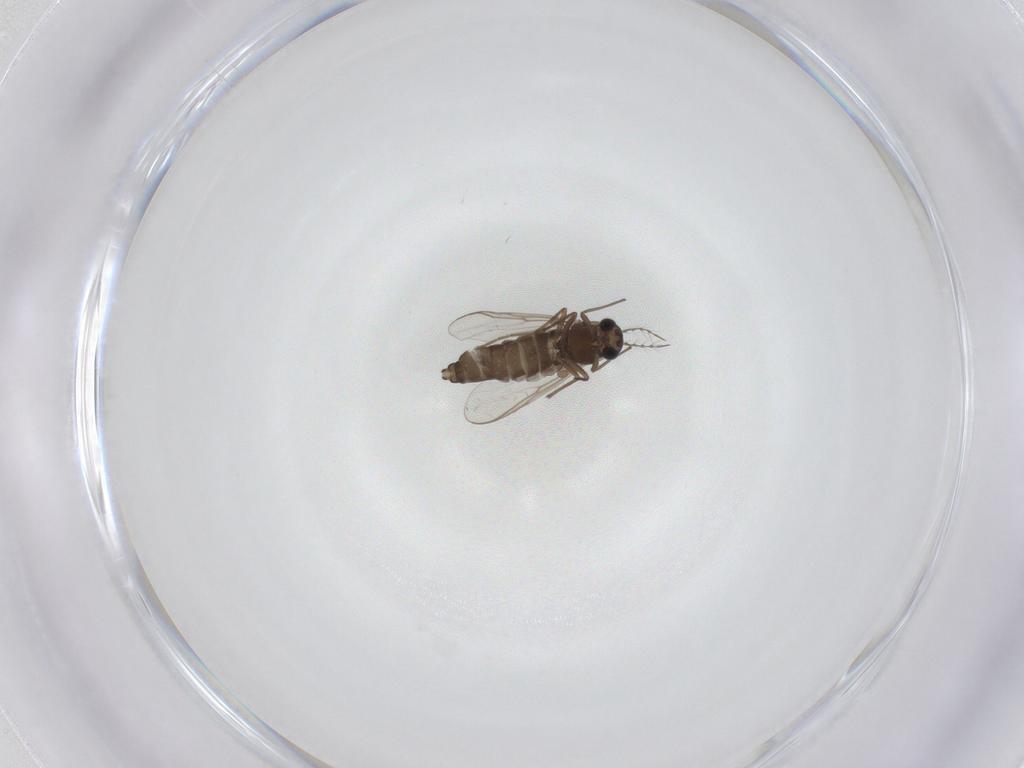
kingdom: Animalia
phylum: Arthropoda
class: Insecta
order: Diptera
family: Chironomidae
